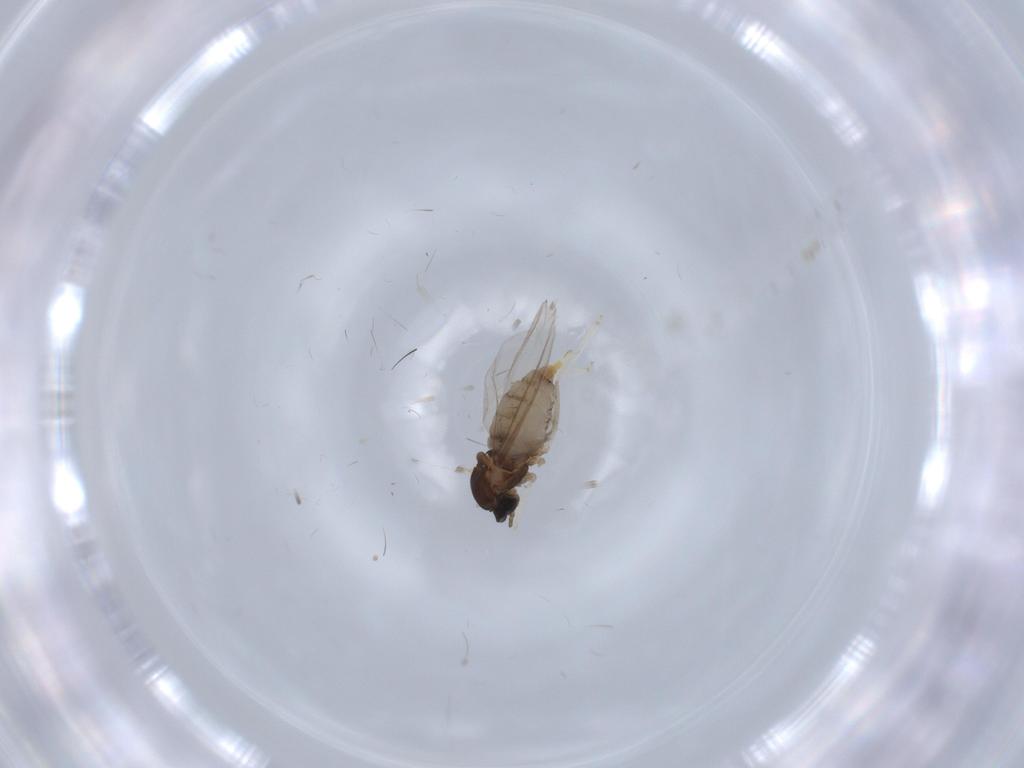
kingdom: Animalia
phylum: Arthropoda
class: Insecta
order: Diptera
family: Cecidomyiidae
